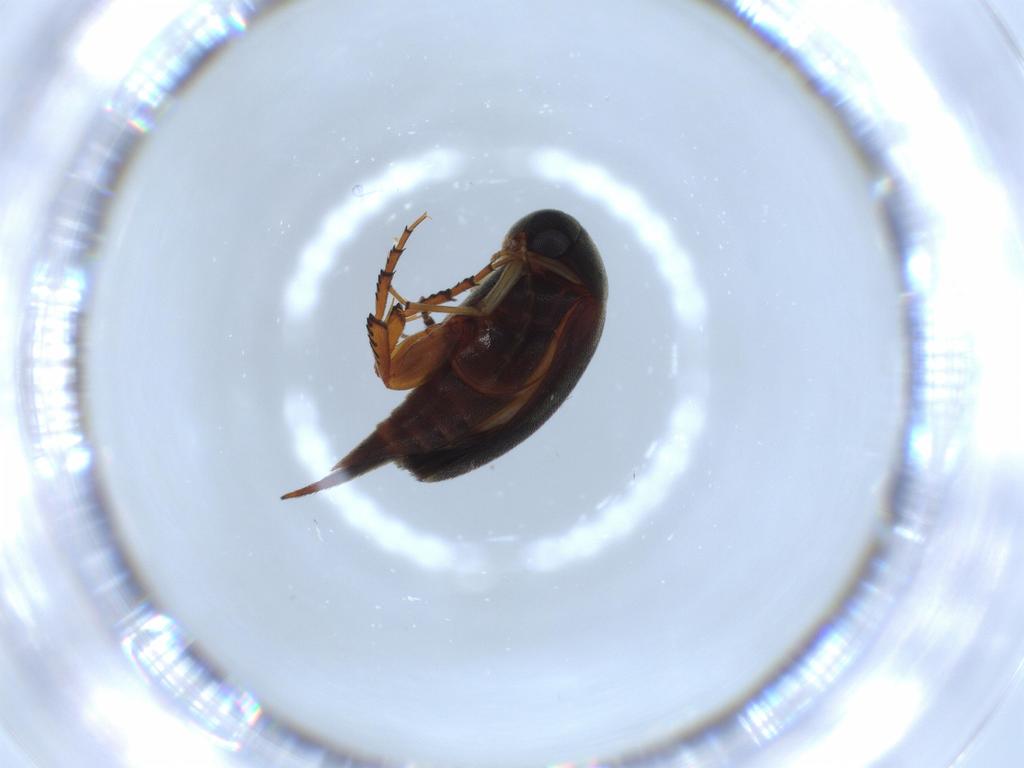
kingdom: Animalia
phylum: Arthropoda
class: Insecta
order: Coleoptera
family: Mordellidae
